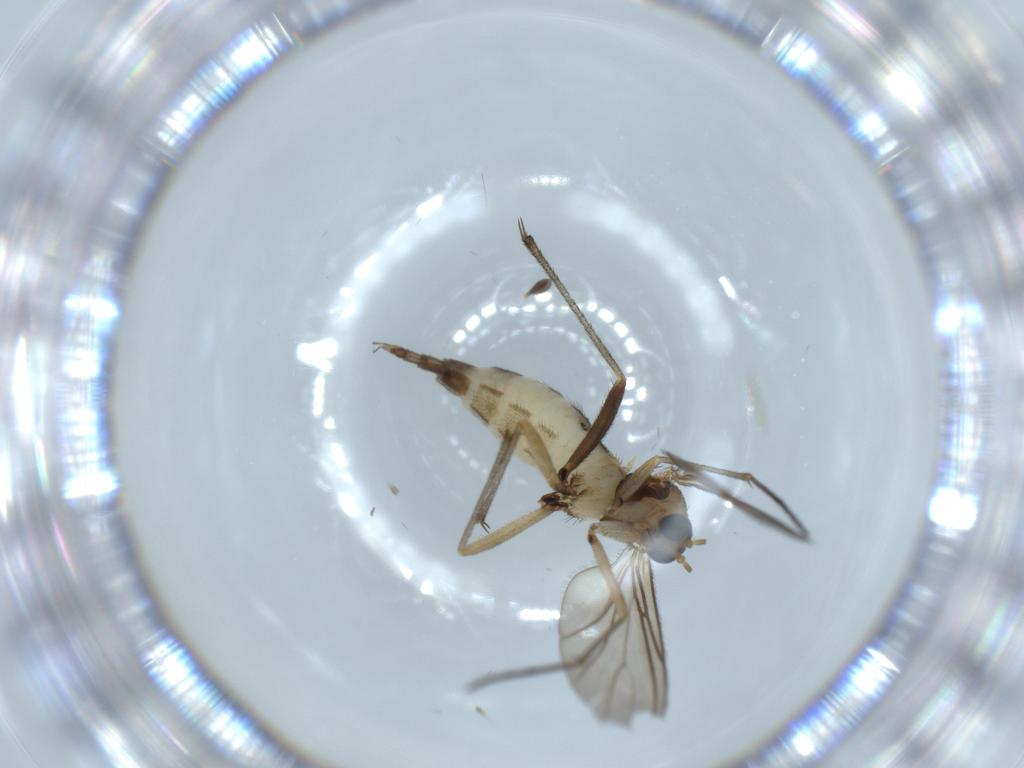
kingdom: Animalia
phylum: Arthropoda
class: Insecta
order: Diptera
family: Sciaridae
